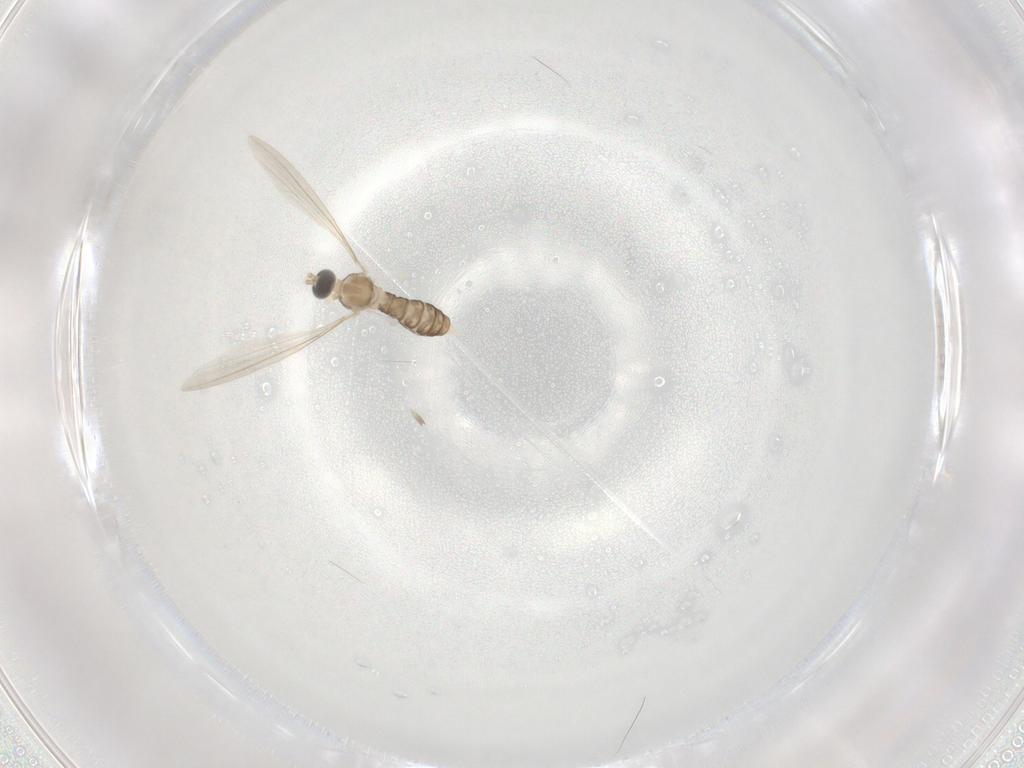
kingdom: Animalia
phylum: Arthropoda
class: Insecta
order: Diptera
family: Cecidomyiidae
